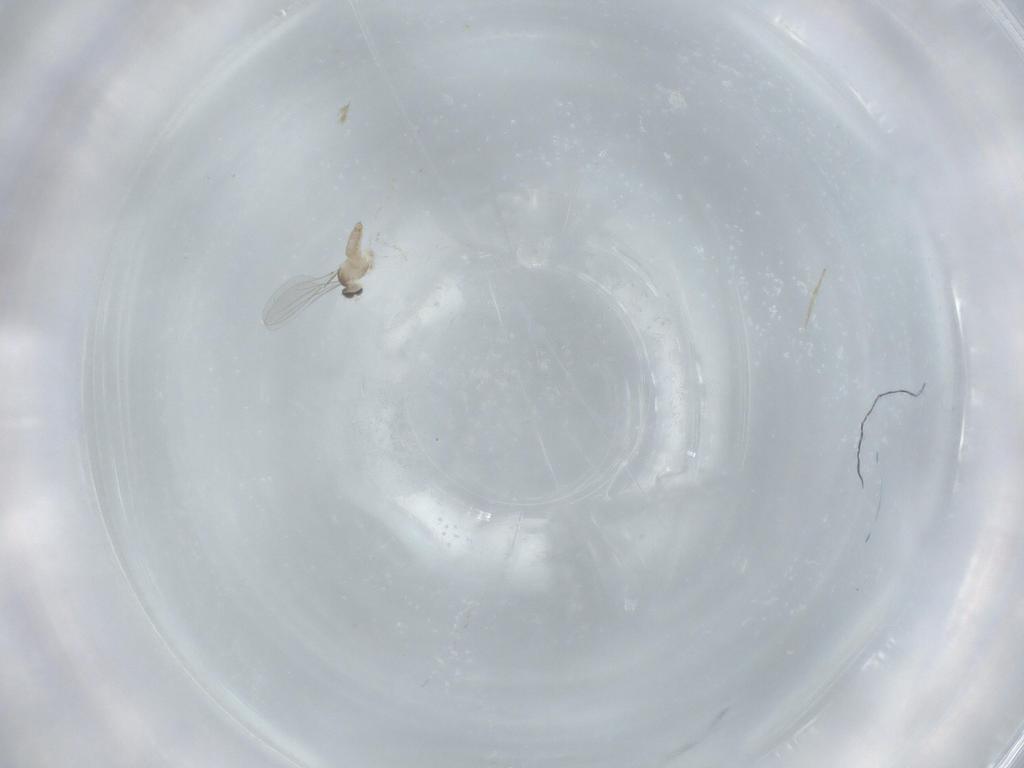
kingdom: Animalia
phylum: Arthropoda
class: Insecta
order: Diptera
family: Cecidomyiidae
